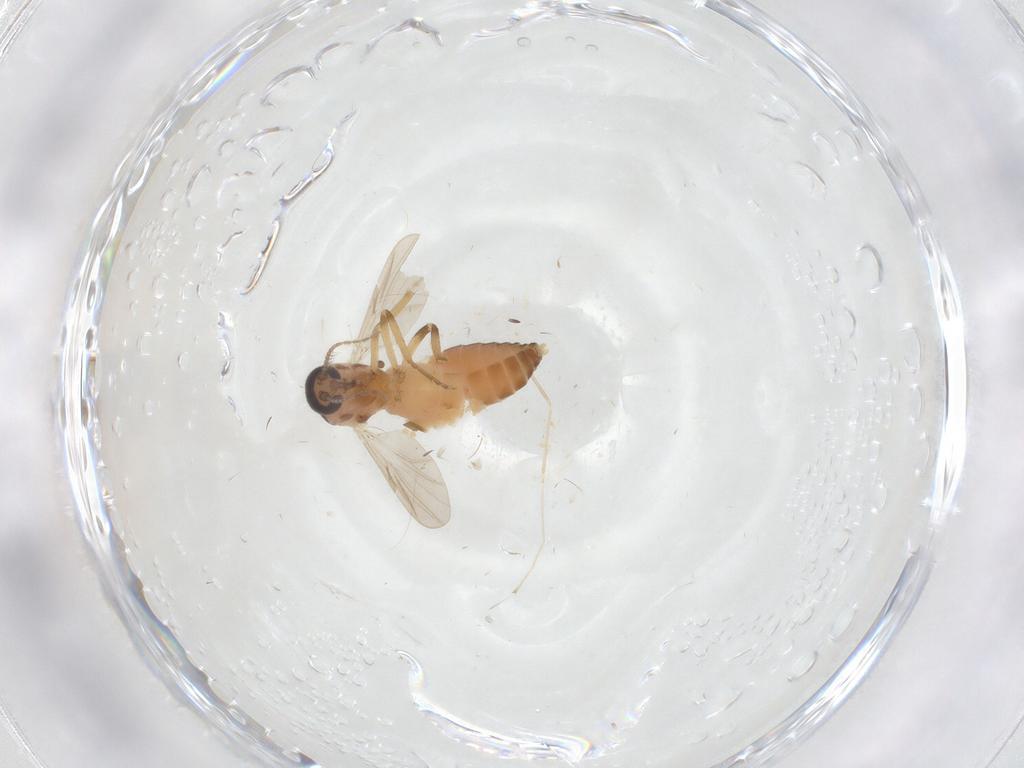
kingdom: Animalia
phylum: Arthropoda
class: Insecta
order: Diptera
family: Ceratopogonidae
